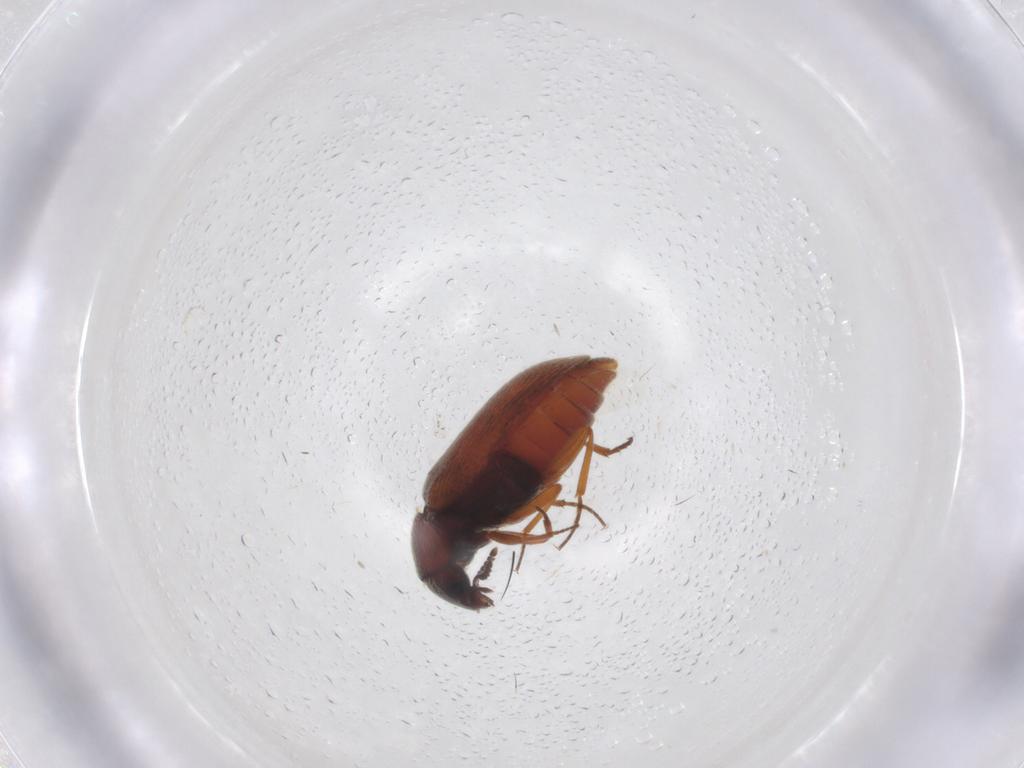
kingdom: Animalia
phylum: Arthropoda
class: Insecta
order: Coleoptera
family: Rhadalidae
